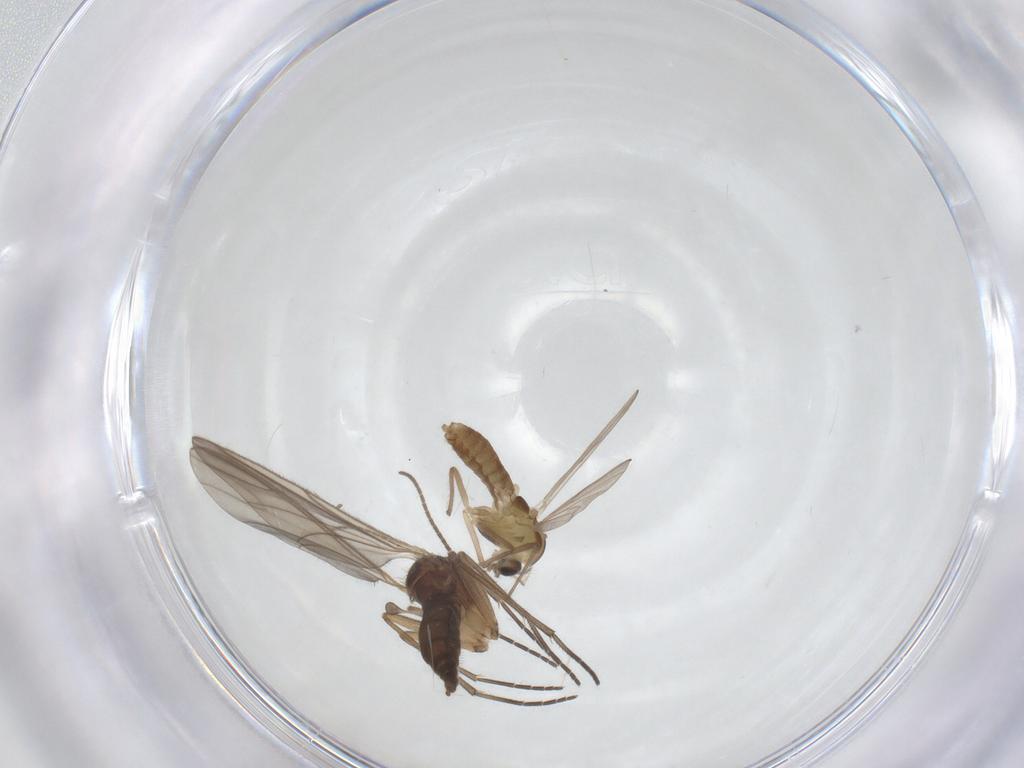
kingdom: Animalia
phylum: Arthropoda
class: Insecta
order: Diptera
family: Chironomidae
